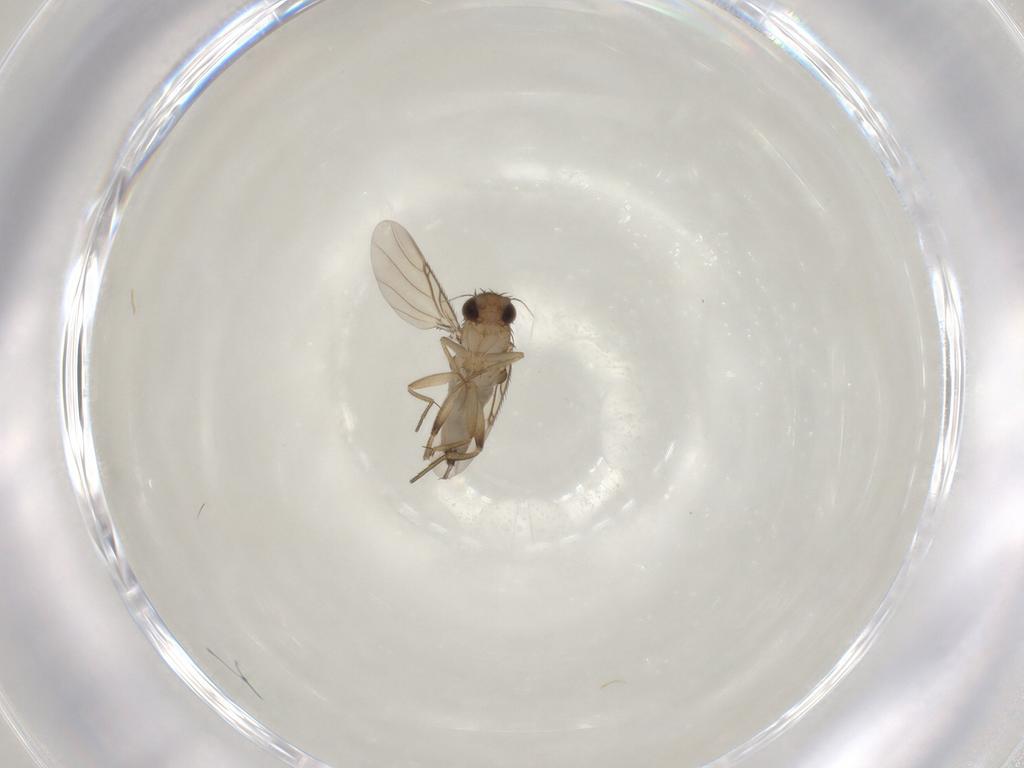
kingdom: Animalia
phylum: Arthropoda
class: Insecta
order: Diptera
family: Phoridae
